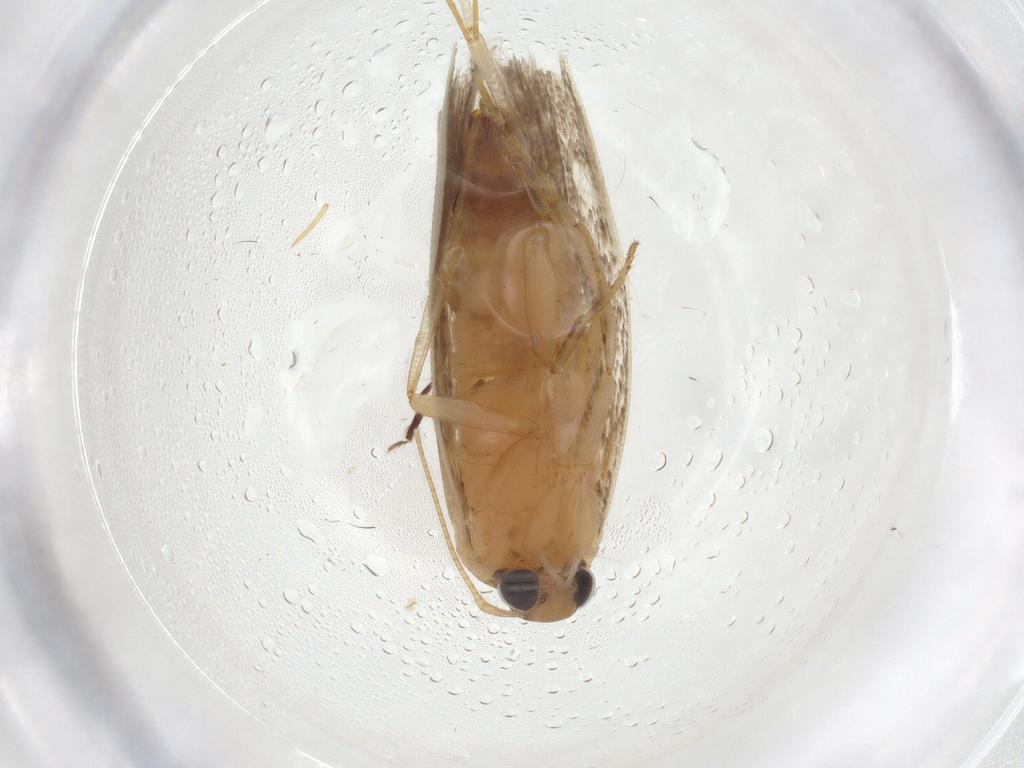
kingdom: Animalia
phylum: Arthropoda
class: Insecta
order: Lepidoptera
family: Gelechiidae
